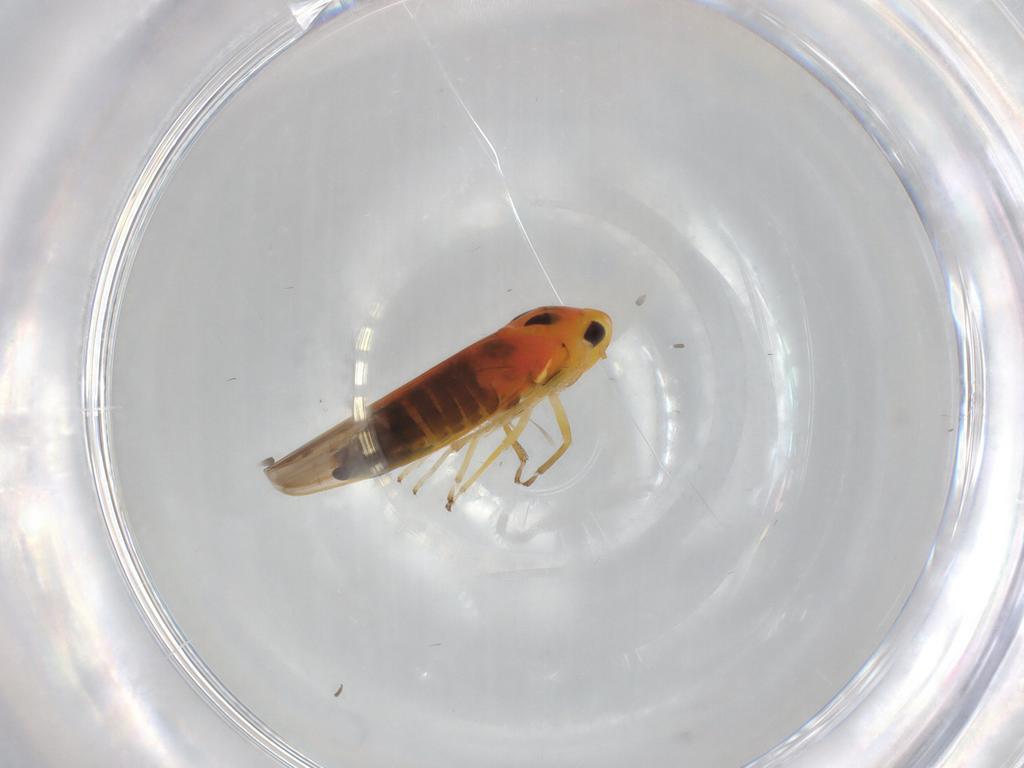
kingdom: Animalia
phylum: Arthropoda
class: Insecta
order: Hemiptera
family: Cicadellidae
